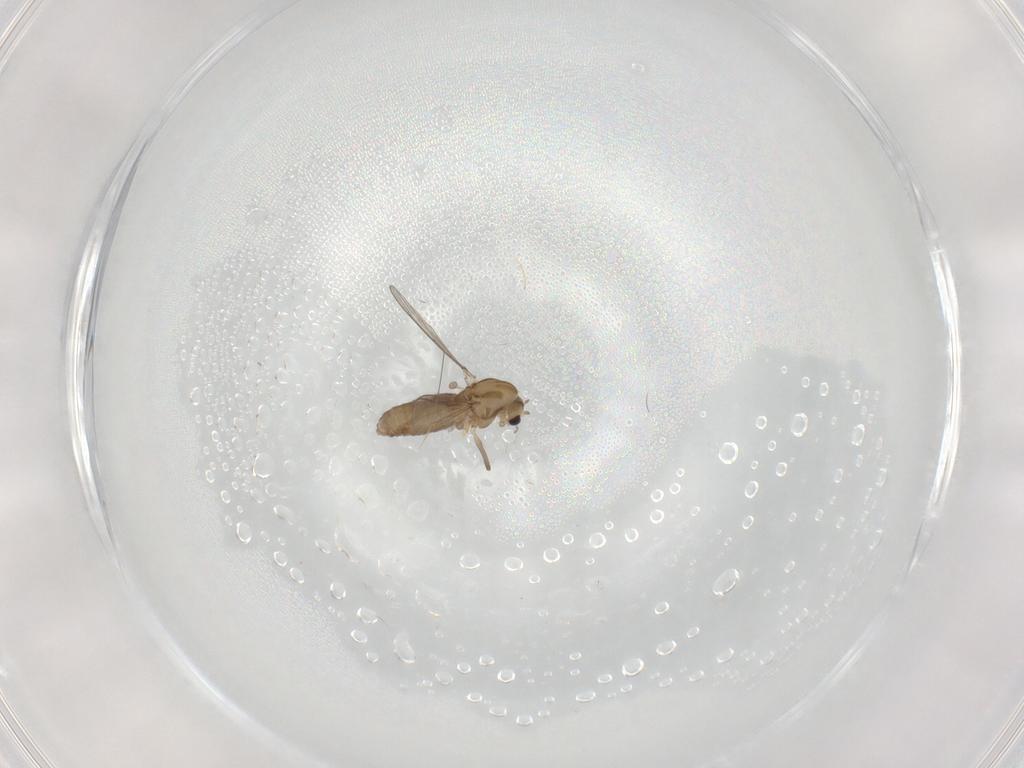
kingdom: Animalia
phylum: Arthropoda
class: Insecta
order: Diptera
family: Chironomidae
